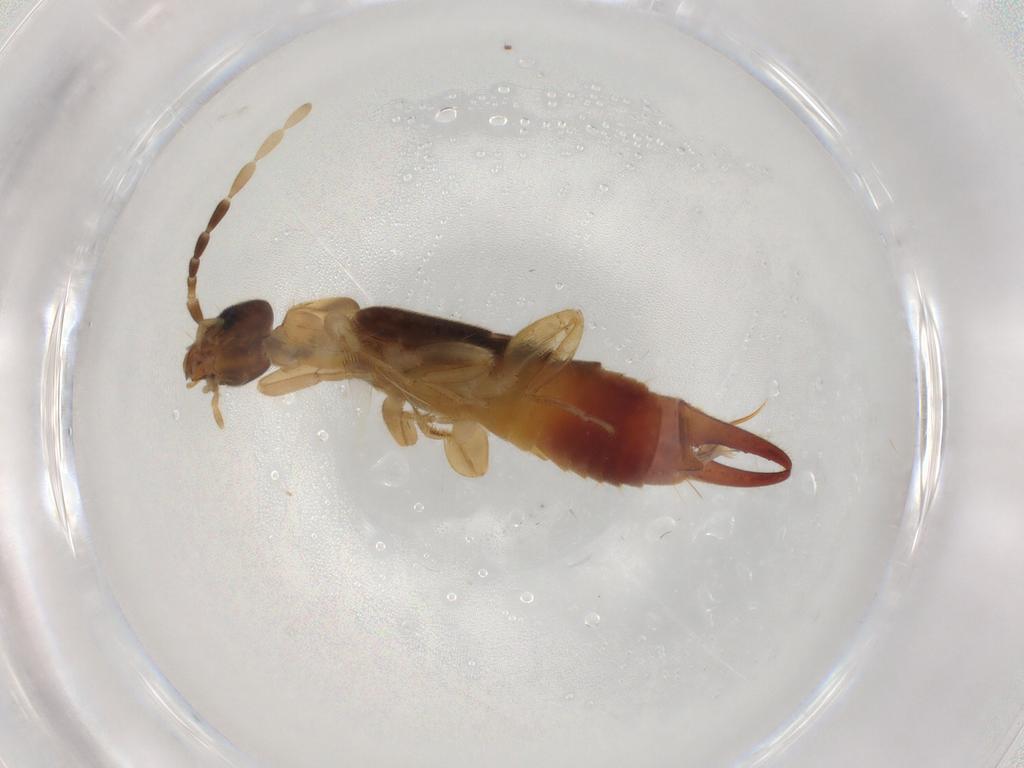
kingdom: Animalia
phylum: Arthropoda
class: Insecta
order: Dermaptera
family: Spongiphoridae
